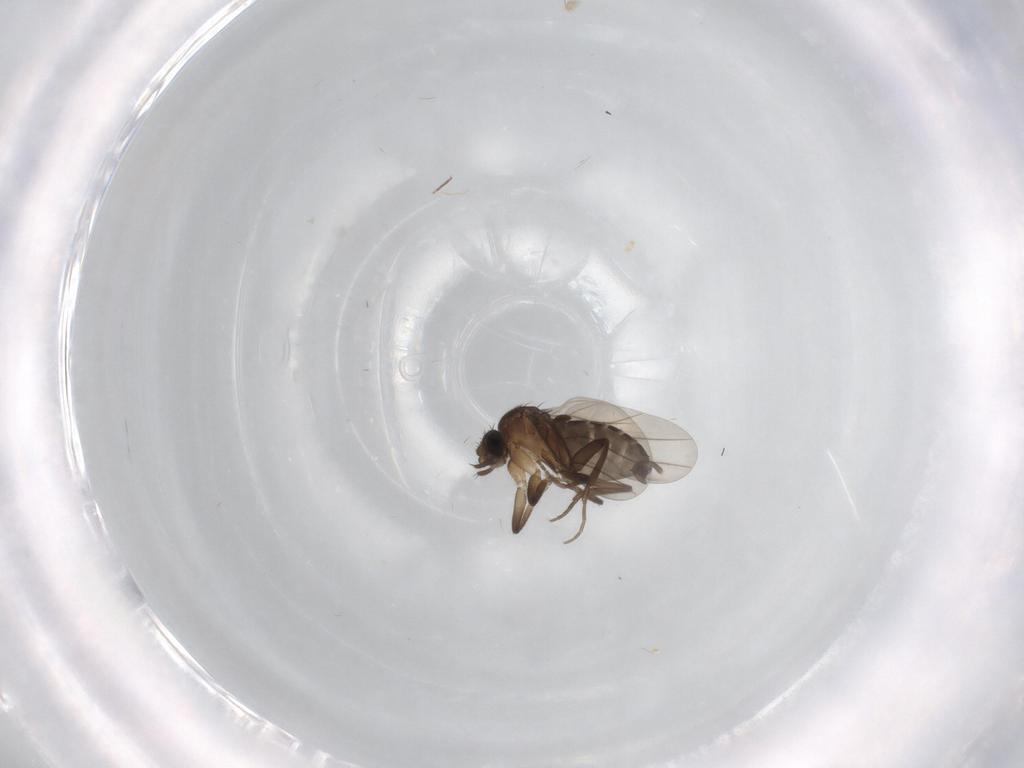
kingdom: Animalia
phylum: Arthropoda
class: Insecta
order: Diptera
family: Phoridae
